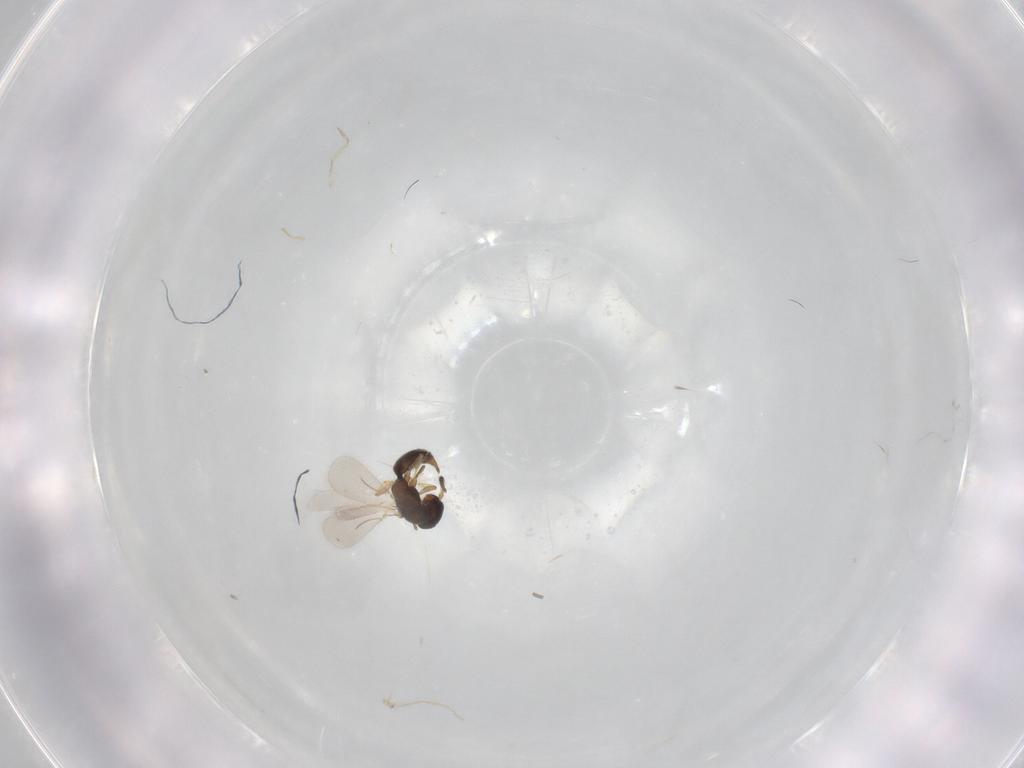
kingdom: Animalia
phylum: Arthropoda
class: Insecta
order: Hymenoptera
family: Bethylidae
